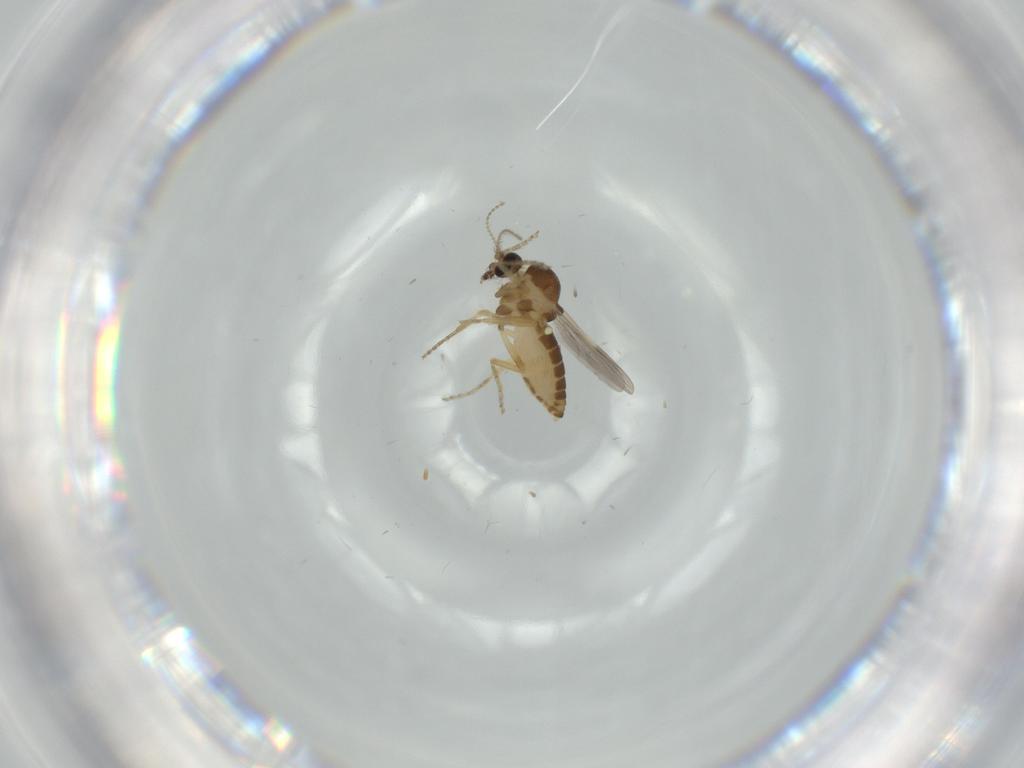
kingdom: Animalia
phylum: Arthropoda
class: Insecta
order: Diptera
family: Ceratopogonidae
